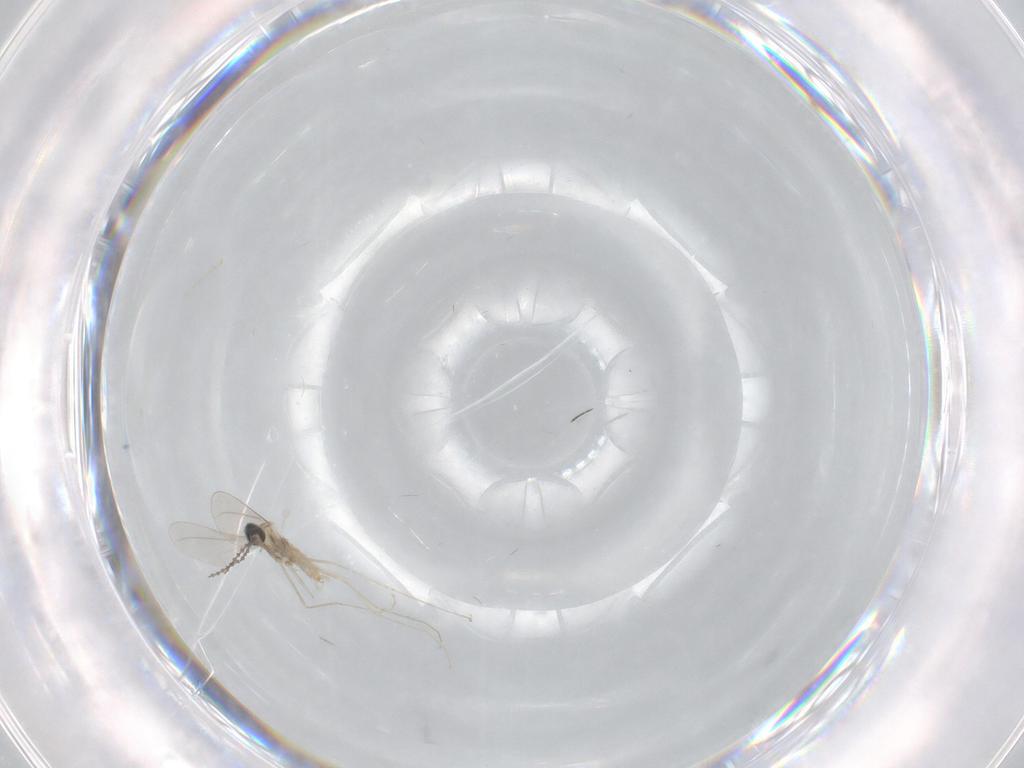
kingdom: Animalia
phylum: Arthropoda
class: Insecta
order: Diptera
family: Cecidomyiidae
